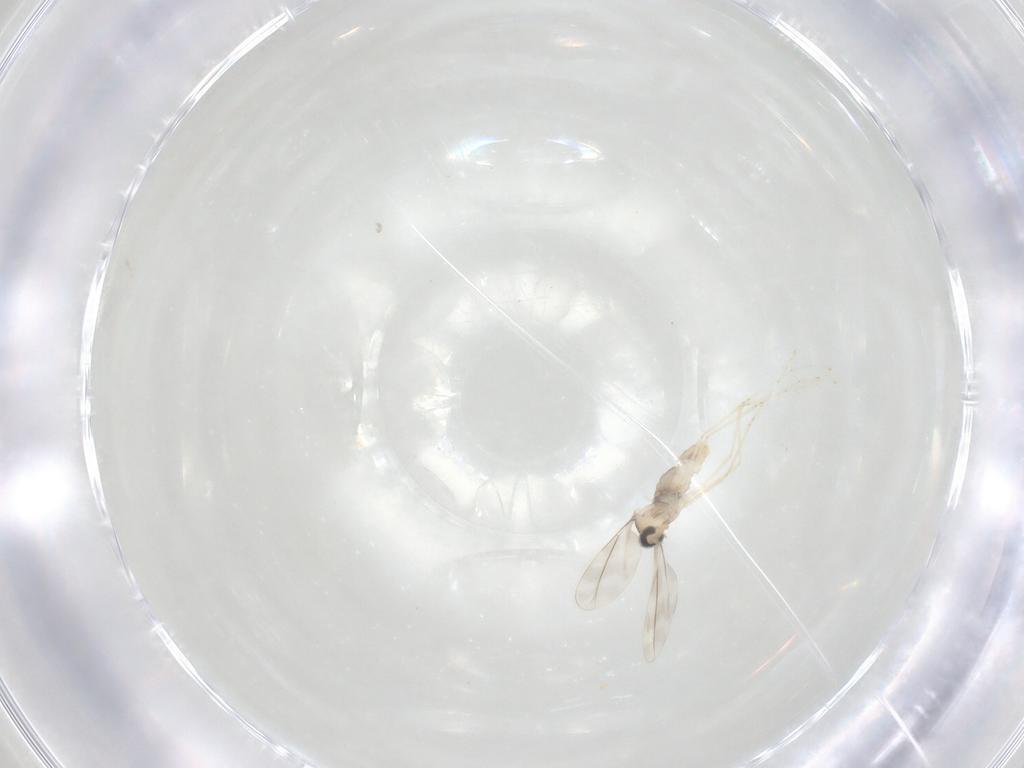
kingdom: Animalia
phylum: Arthropoda
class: Insecta
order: Diptera
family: Cecidomyiidae
